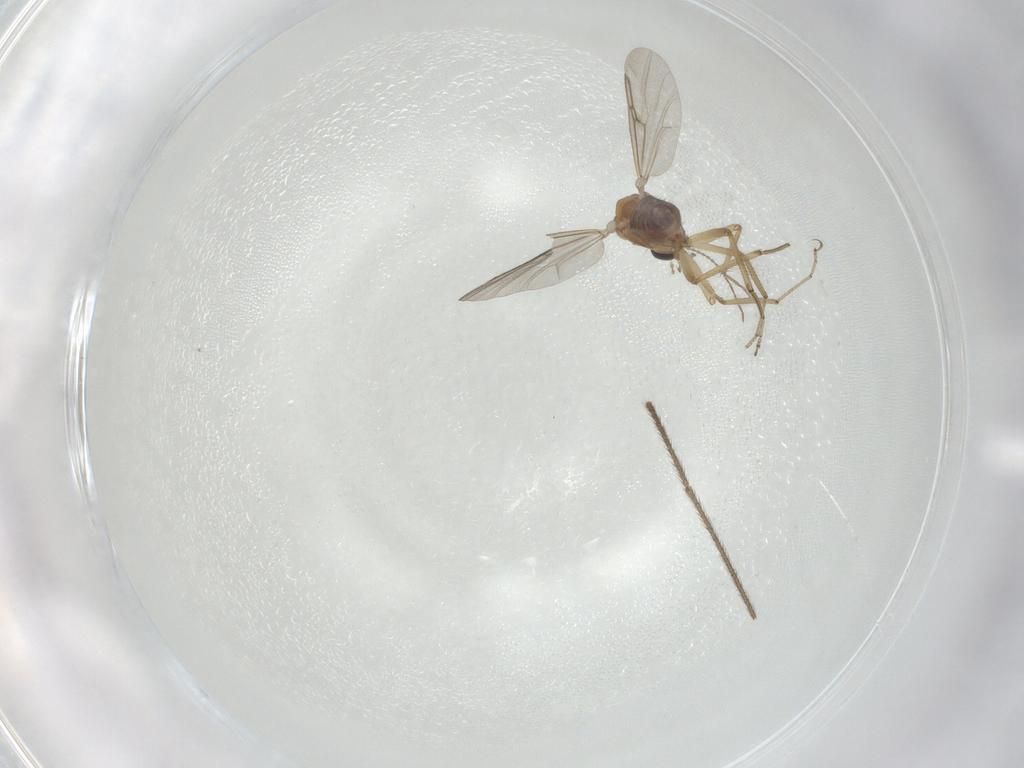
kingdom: Animalia
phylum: Arthropoda
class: Insecta
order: Diptera
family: Ceratopogonidae
